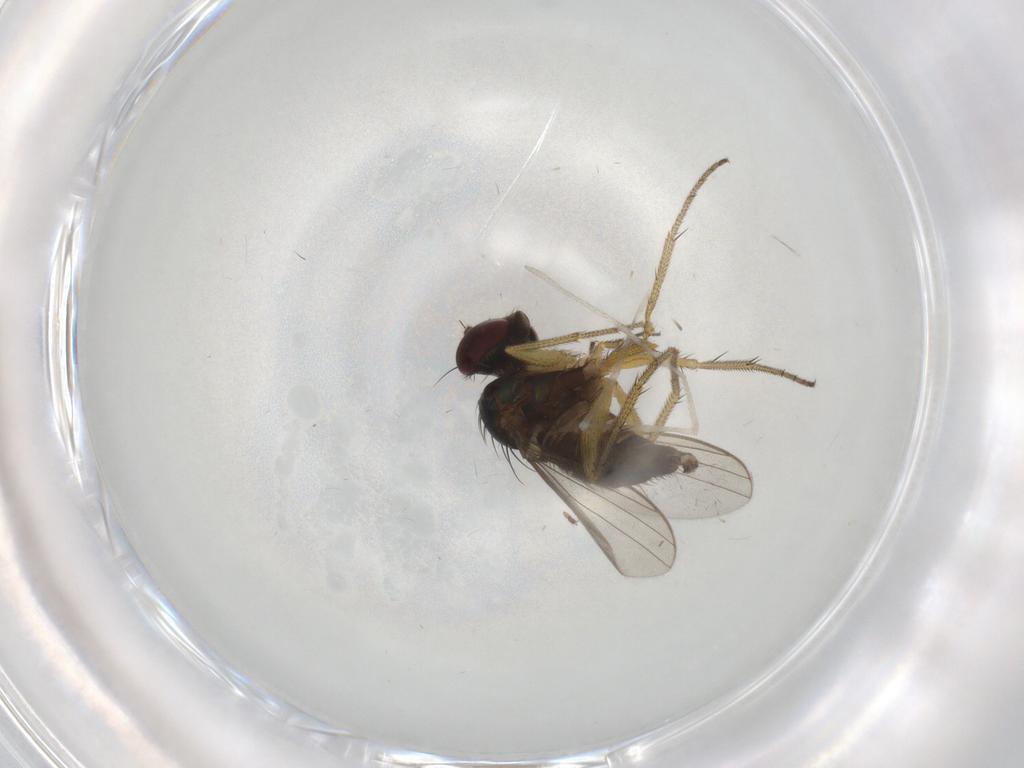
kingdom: Animalia
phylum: Arthropoda
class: Insecta
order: Diptera
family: Chironomidae
